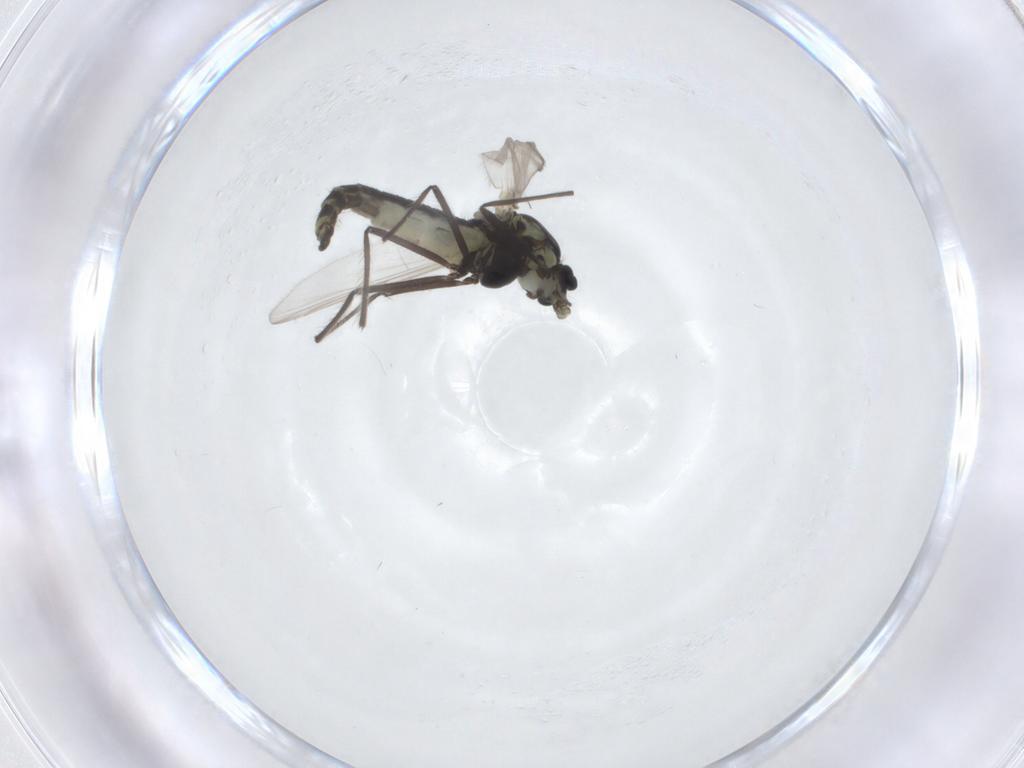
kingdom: Animalia
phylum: Arthropoda
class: Insecta
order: Diptera
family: Chironomidae
